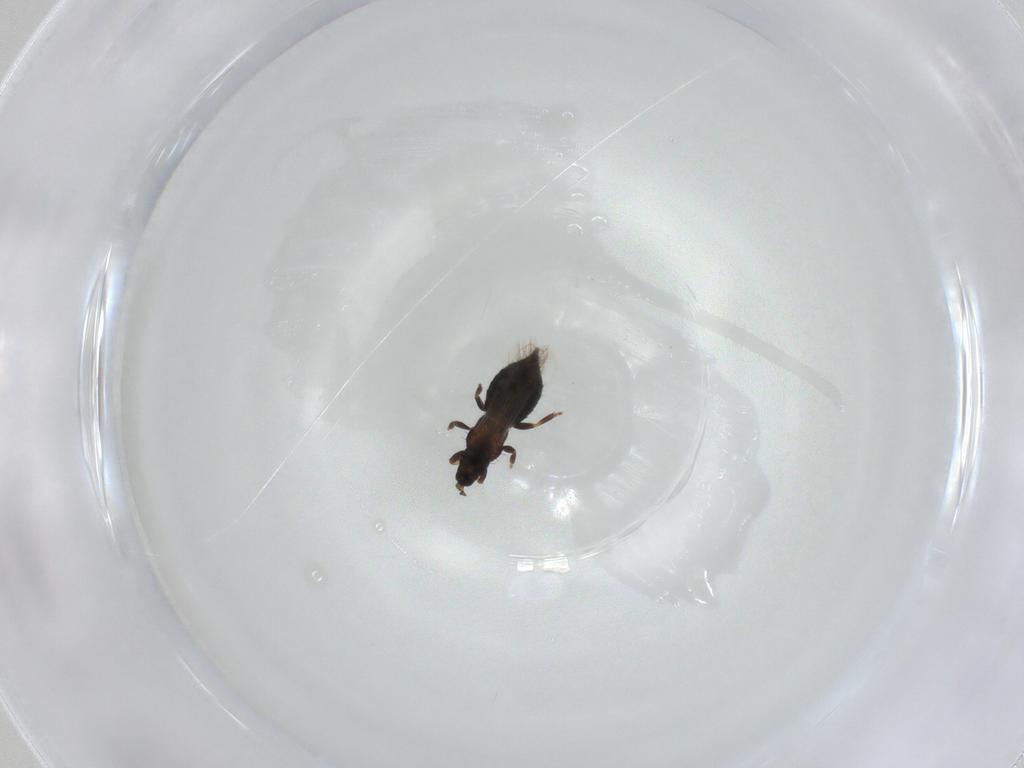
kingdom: Animalia
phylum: Arthropoda
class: Insecta
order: Thysanoptera
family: Melanthripidae
